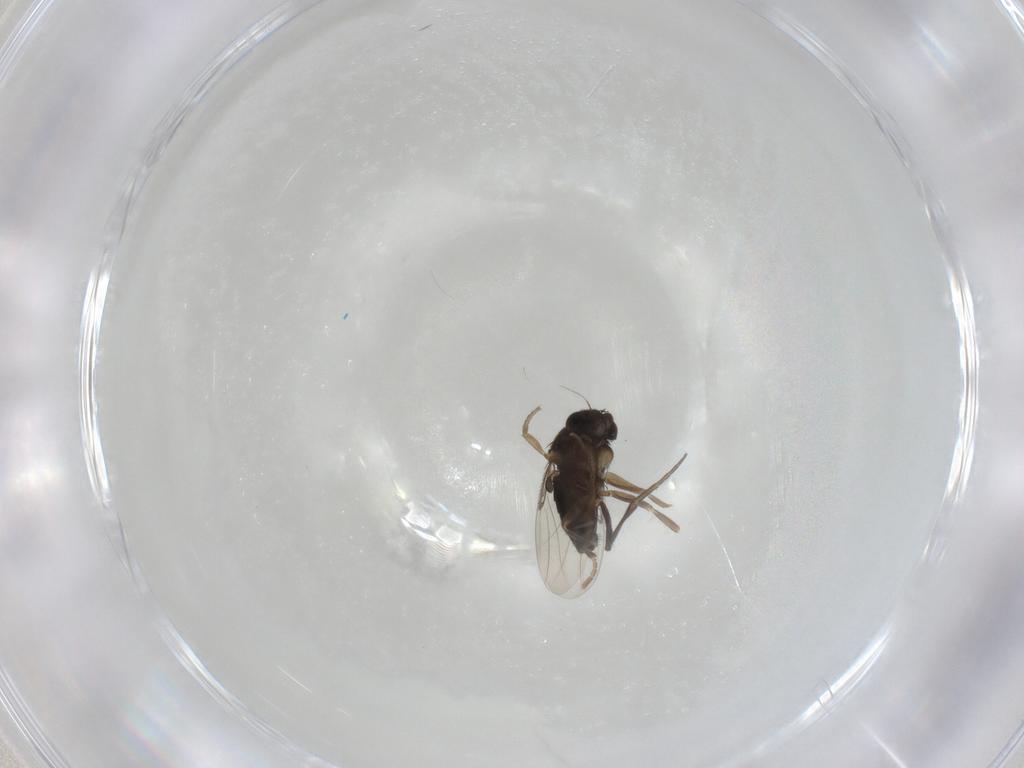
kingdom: Animalia
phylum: Arthropoda
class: Insecta
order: Diptera
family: Phoridae
